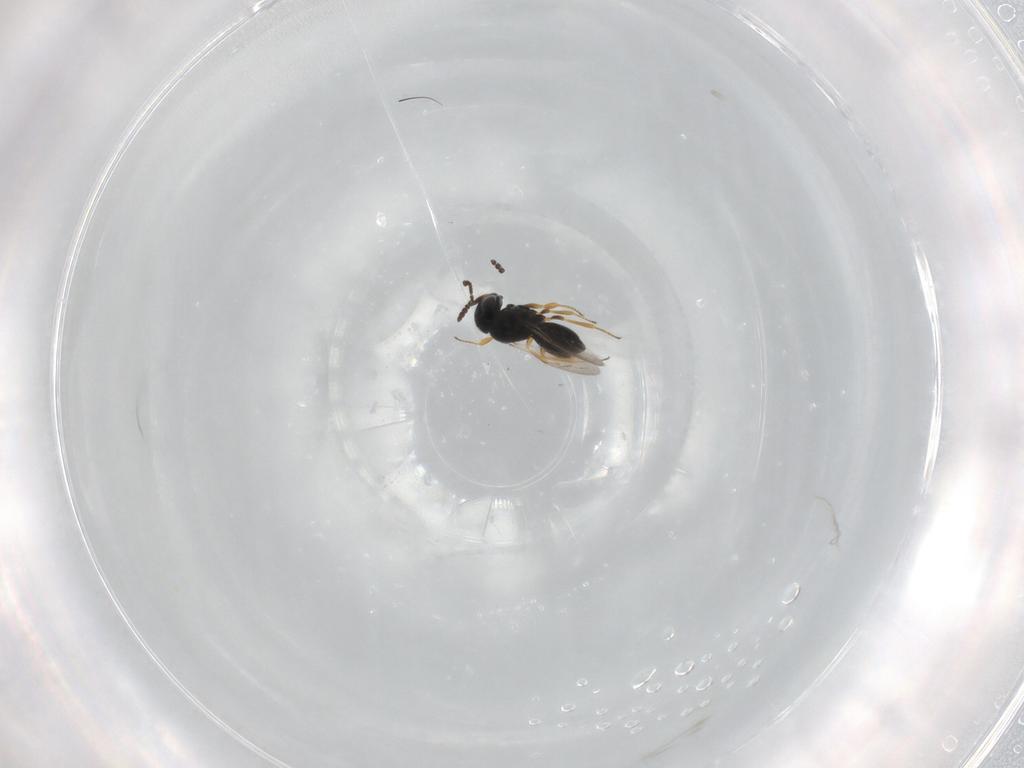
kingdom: Animalia
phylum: Arthropoda
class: Insecta
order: Hymenoptera
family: Scelionidae
